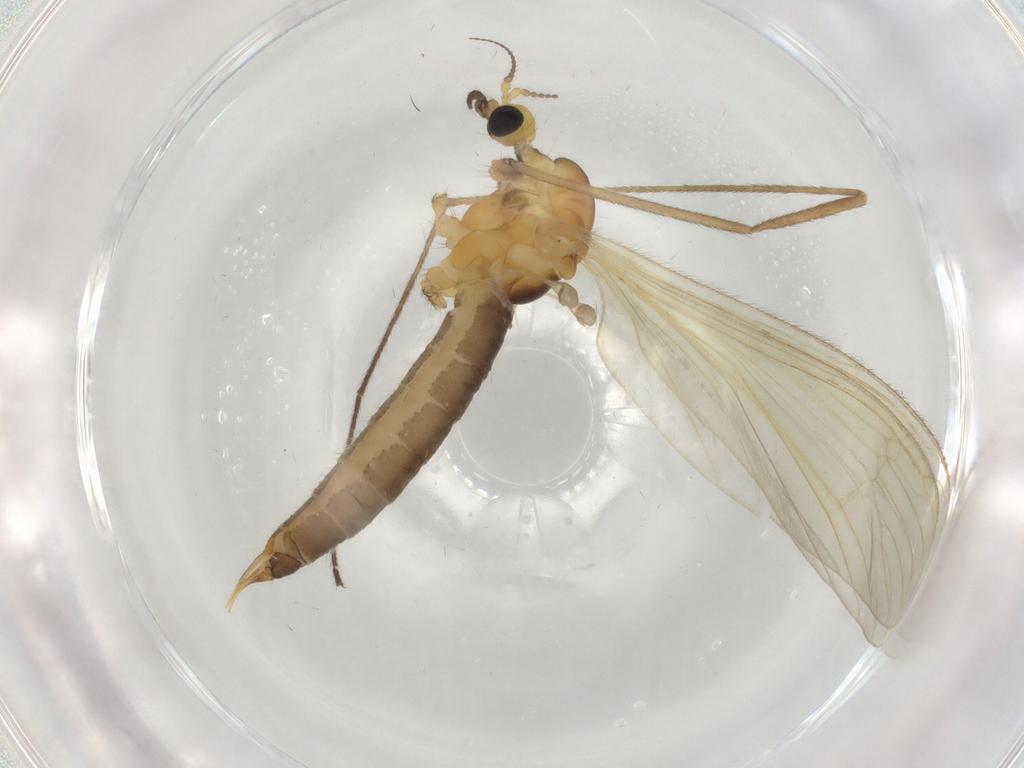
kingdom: Animalia
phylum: Arthropoda
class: Insecta
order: Diptera
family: Limoniidae
